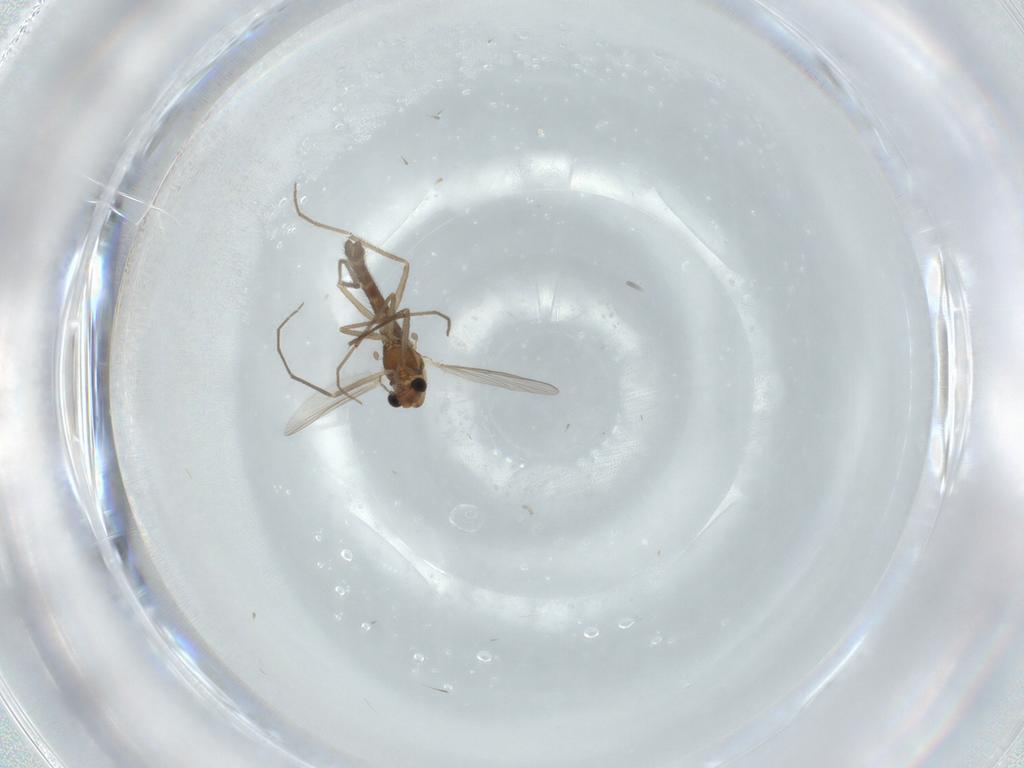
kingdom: Animalia
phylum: Arthropoda
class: Insecta
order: Diptera
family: Chironomidae
